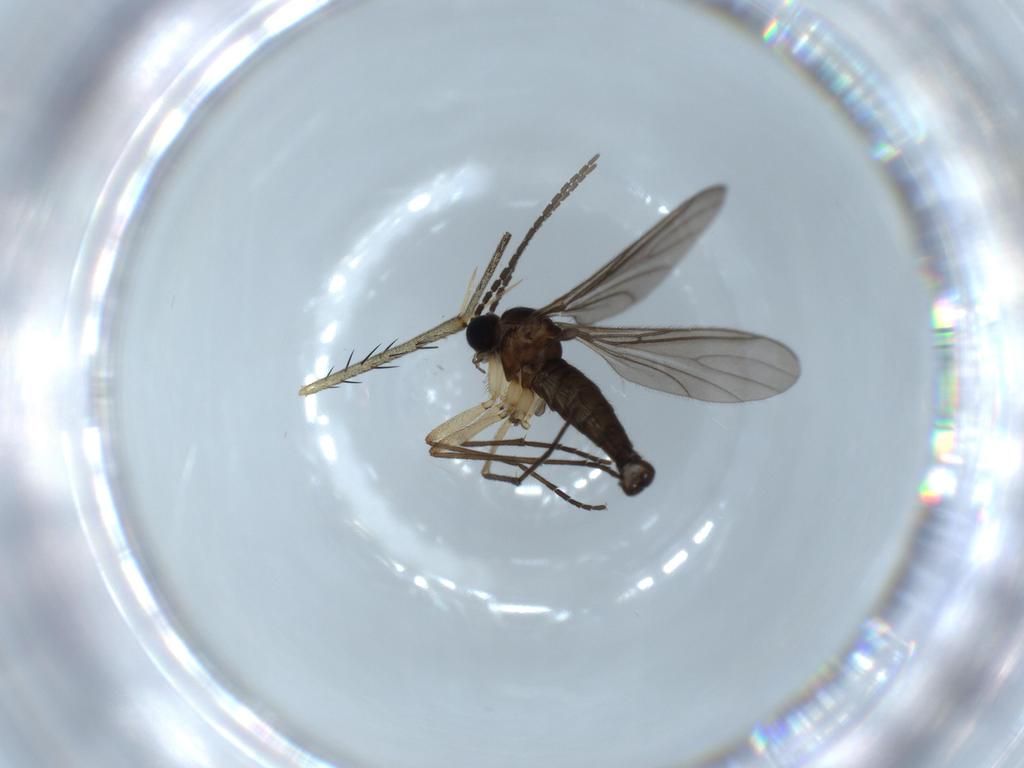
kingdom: Animalia
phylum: Arthropoda
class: Insecta
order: Diptera
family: Sciaridae
